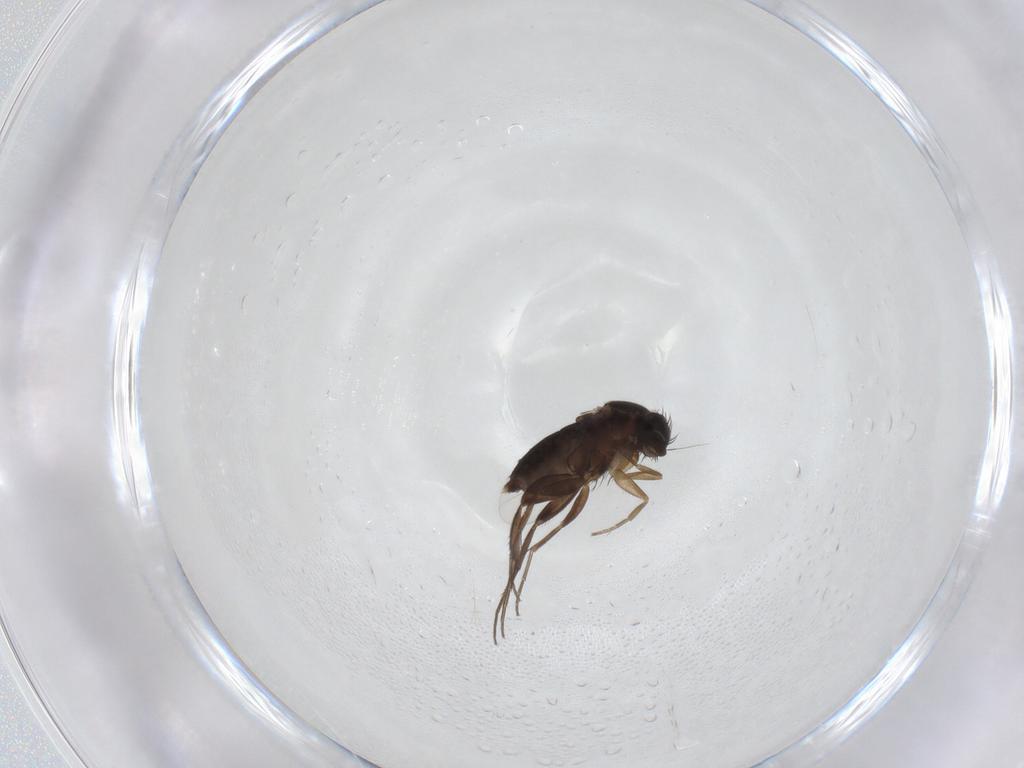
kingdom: Animalia
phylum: Arthropoda
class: Insecta
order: Diptera
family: Phoridae
